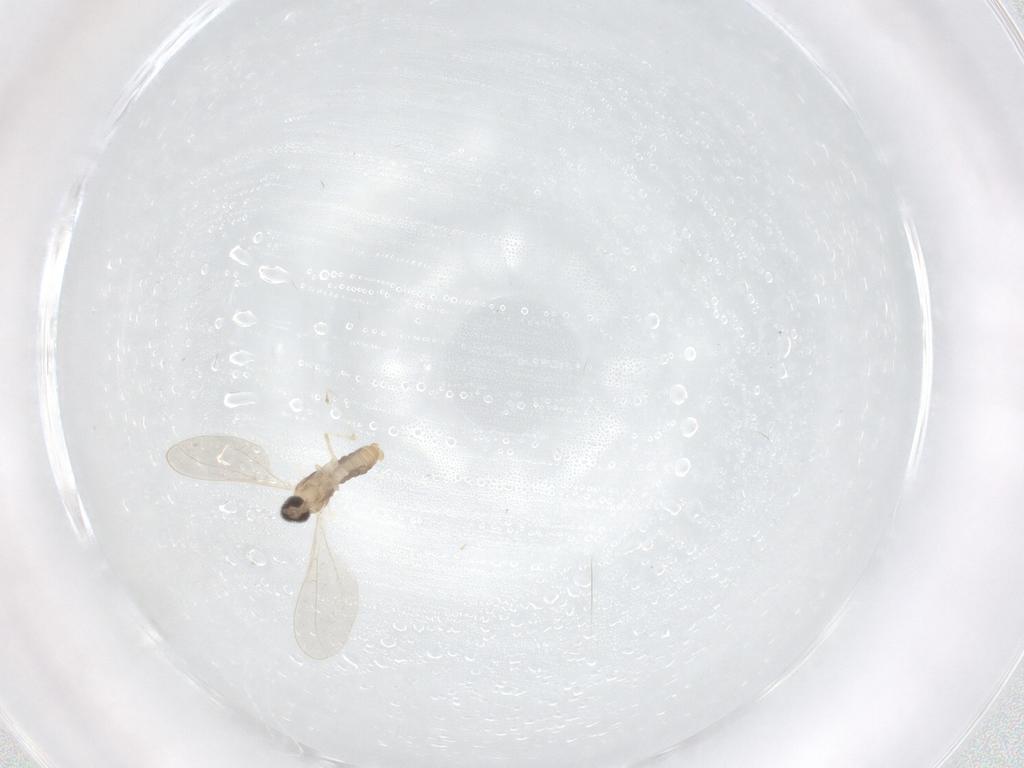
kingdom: Animalia
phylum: Arthropoda
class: Insecta
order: Diptera
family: Cecidomyiidae
